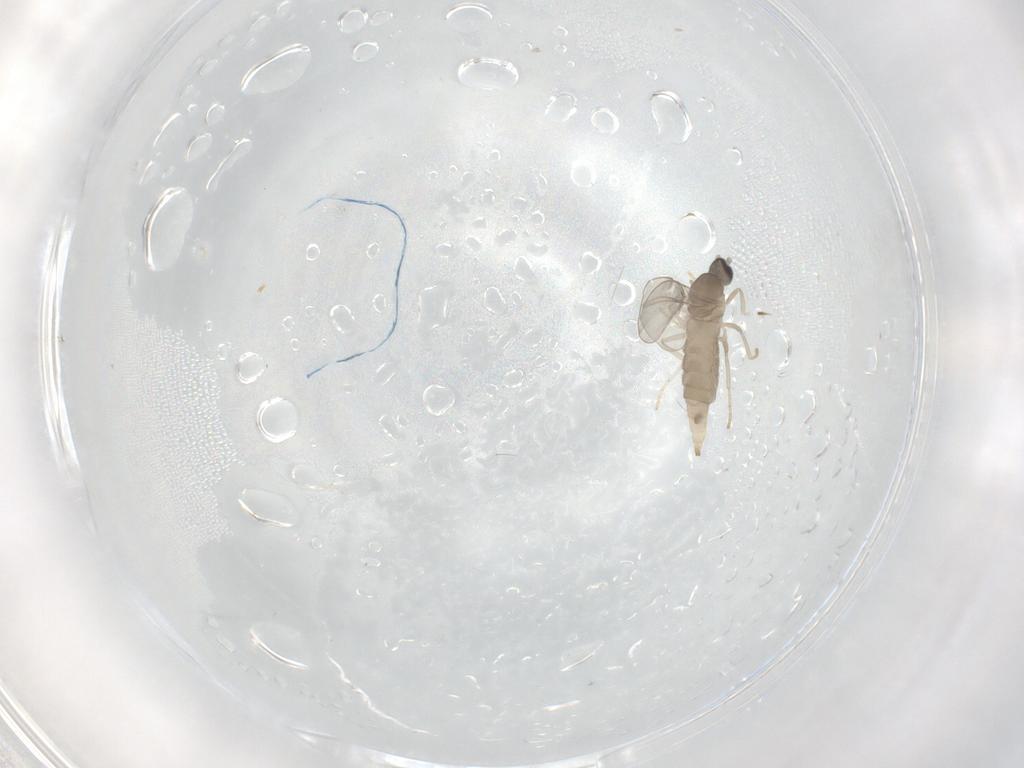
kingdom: Animalia
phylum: Arthropoda
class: Insecta
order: Diptera
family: Cecidomyiidae
